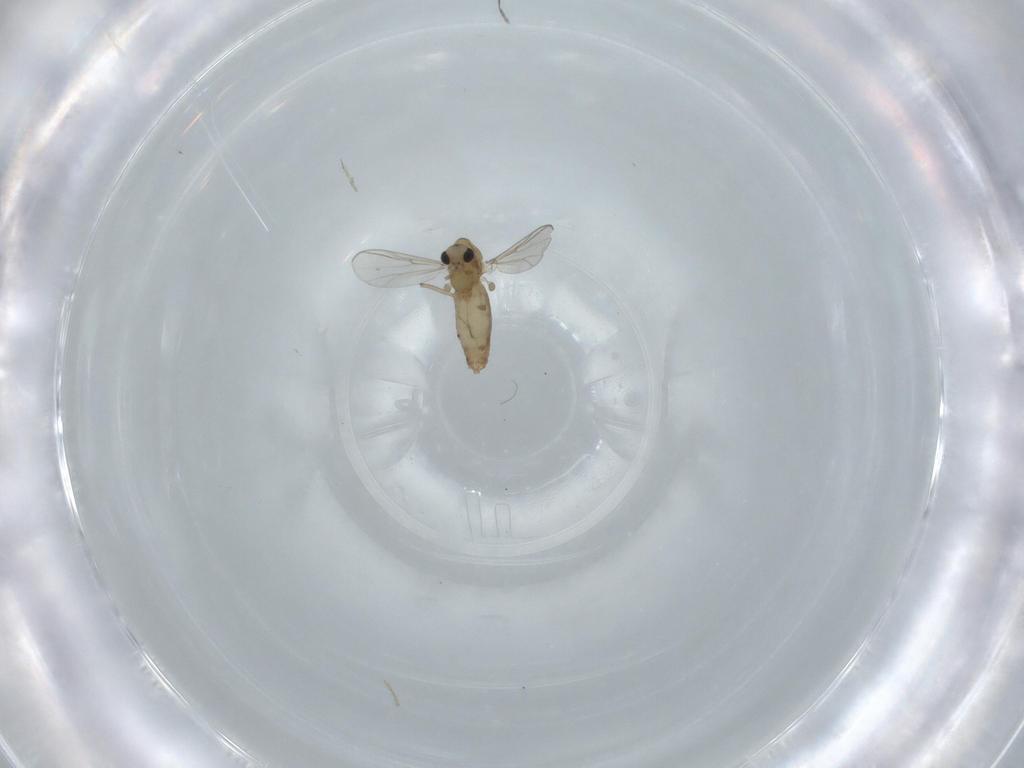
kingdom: Animalia
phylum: Arthropoda
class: Insecta
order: Diptera
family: Chironomidae
